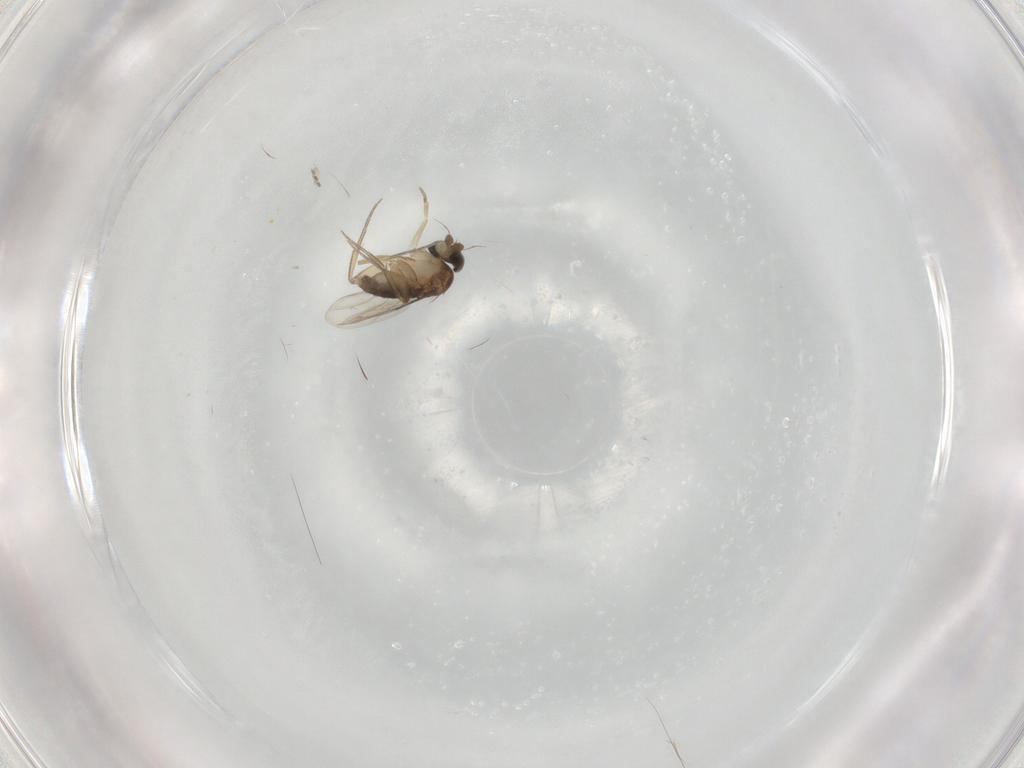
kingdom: Animalia
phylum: Arthropoda
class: Insecta
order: Diptera
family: Phoridae
